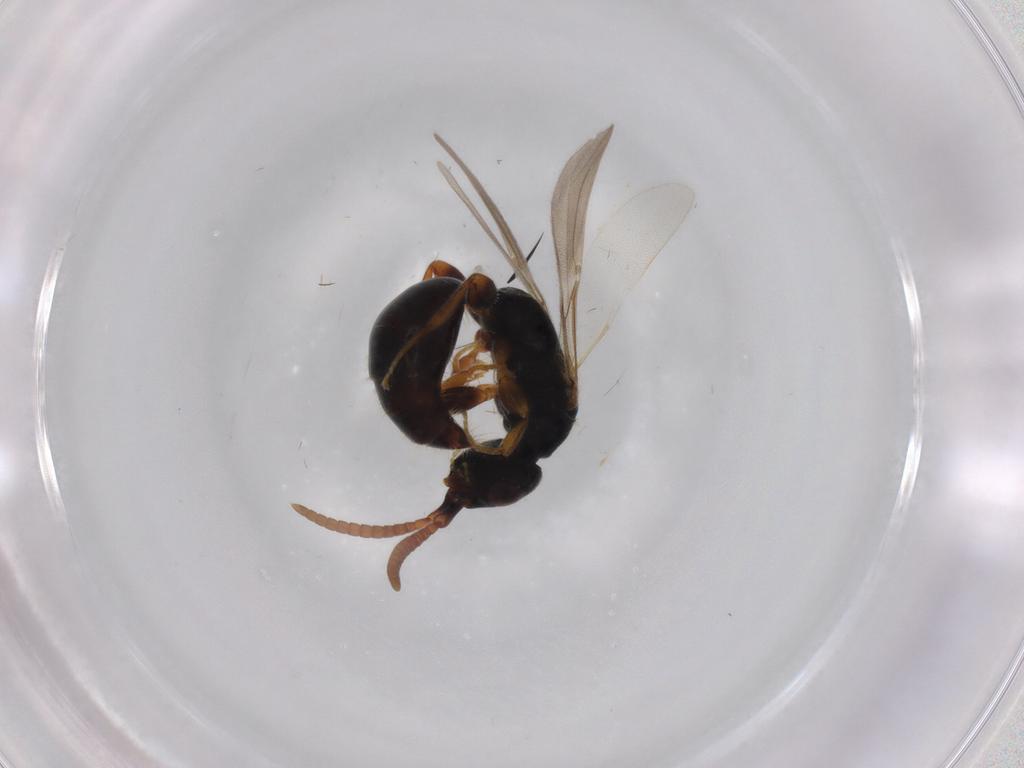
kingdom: Animalia
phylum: Arthropoda
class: Insecta
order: Hymenoptera
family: Bethylidae
